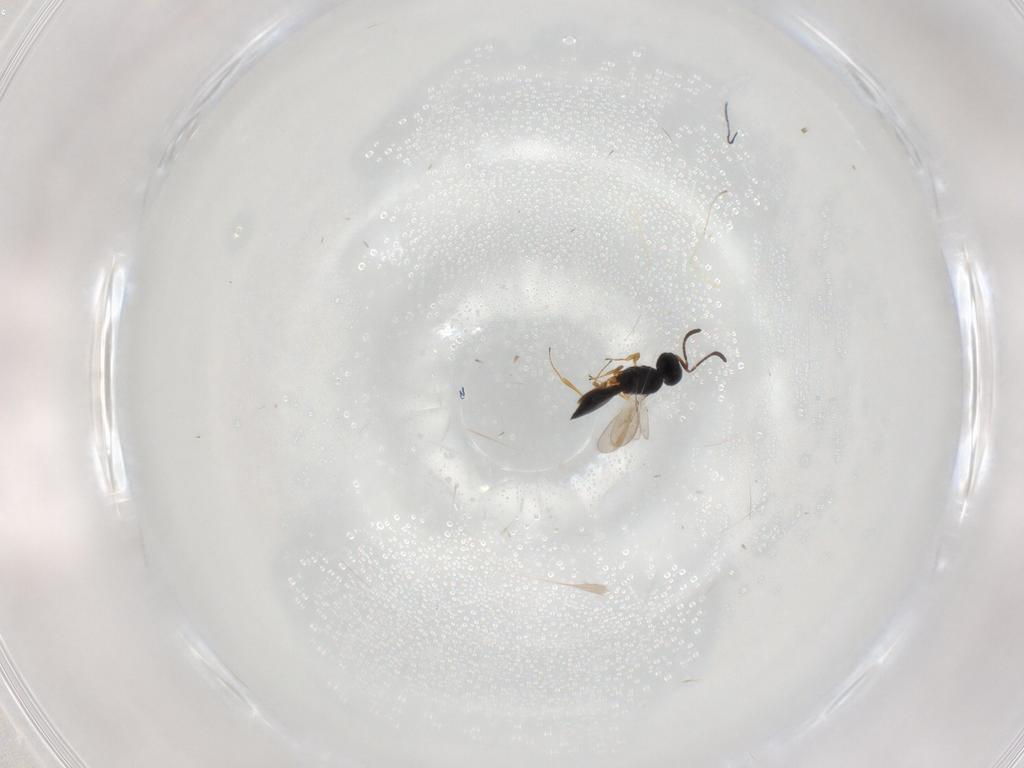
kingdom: Animalia
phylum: Arthropoda
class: Insecta
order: Hymenoptera
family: Scelionidae
